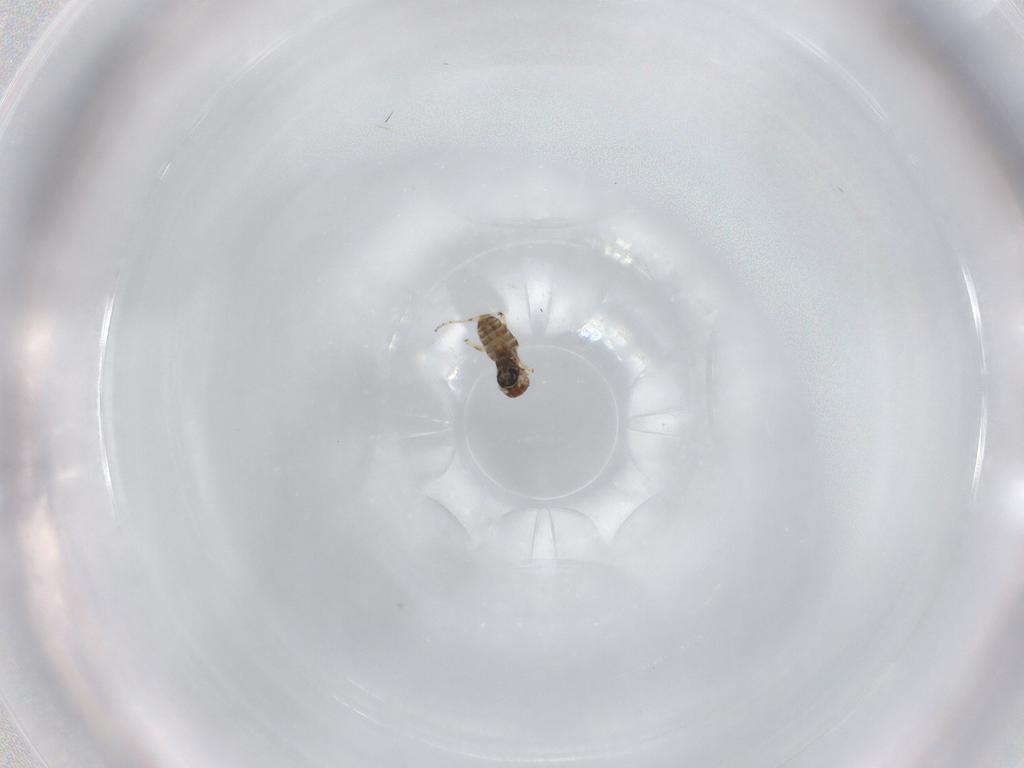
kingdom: Animalia
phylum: Arthropoda
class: Insecta
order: Diptera
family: Ceratopogonidae
